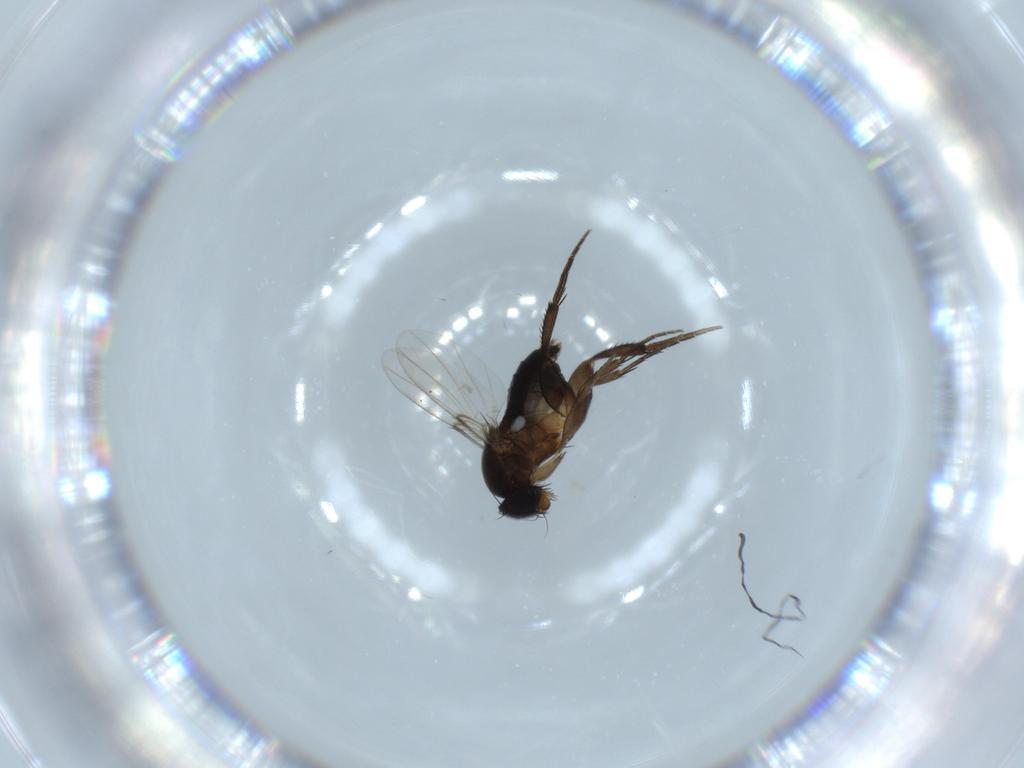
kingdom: Animalia
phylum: Arthropoda
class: Insecta
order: Diptera
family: Phoridae
